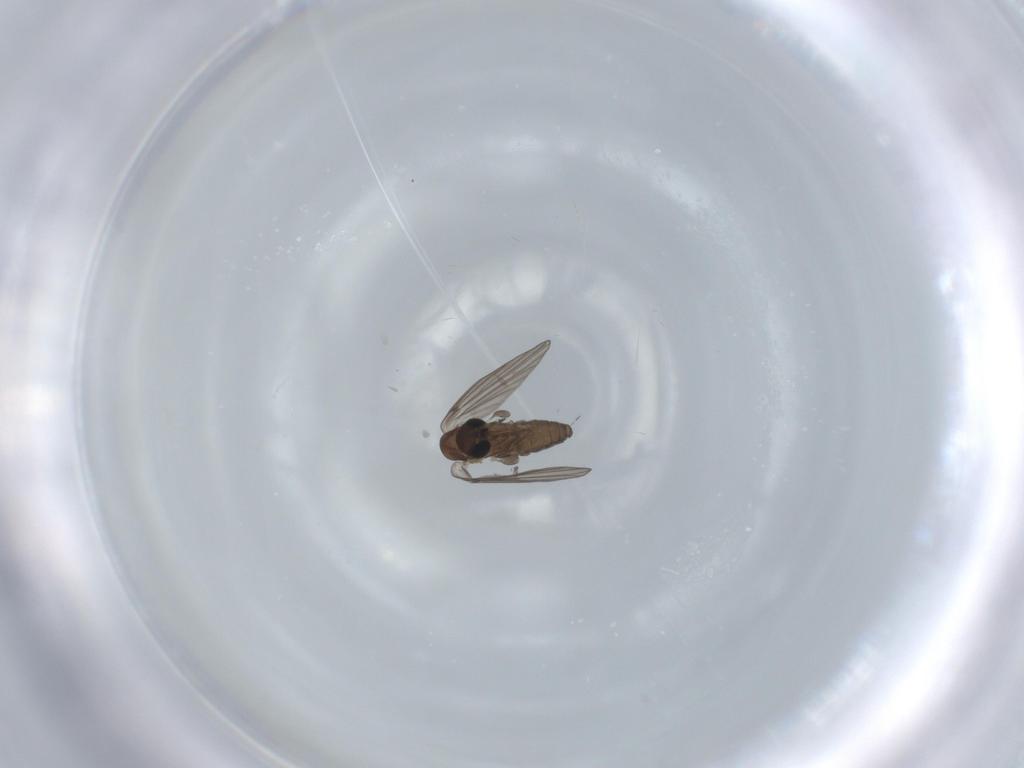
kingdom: Animalia
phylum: Arthropoda
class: Insecta
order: Diptera
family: Psychodidae
